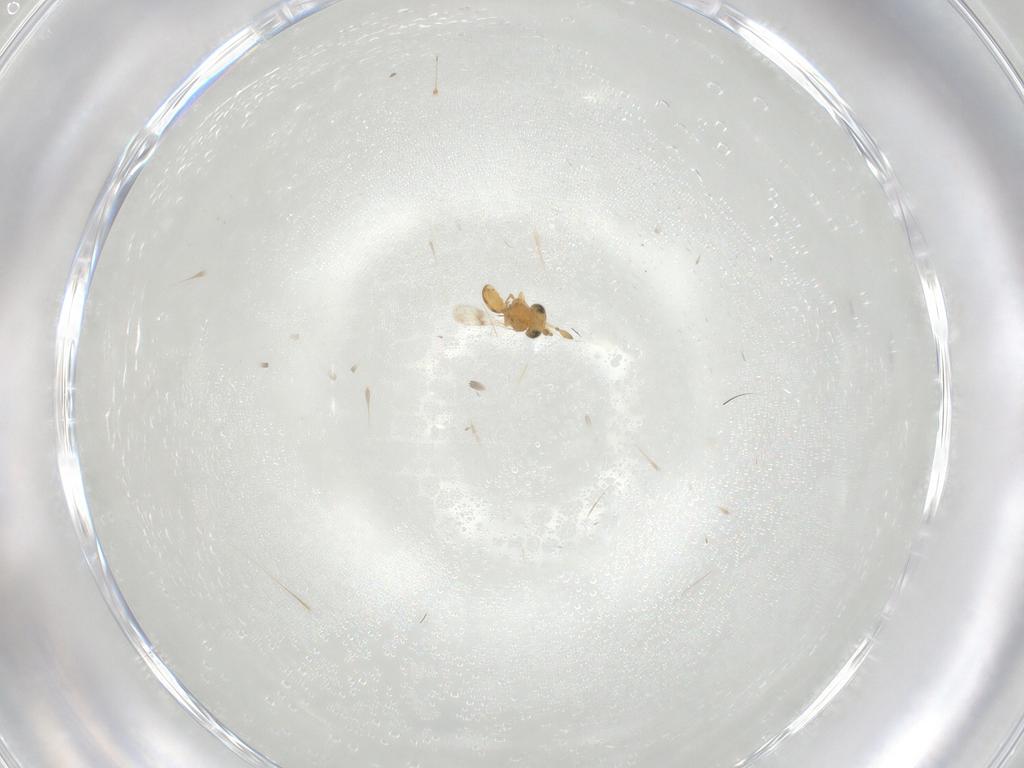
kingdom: Animalia
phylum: Arthropoda
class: Insecta
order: Hymenoptera
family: Scelionidae
